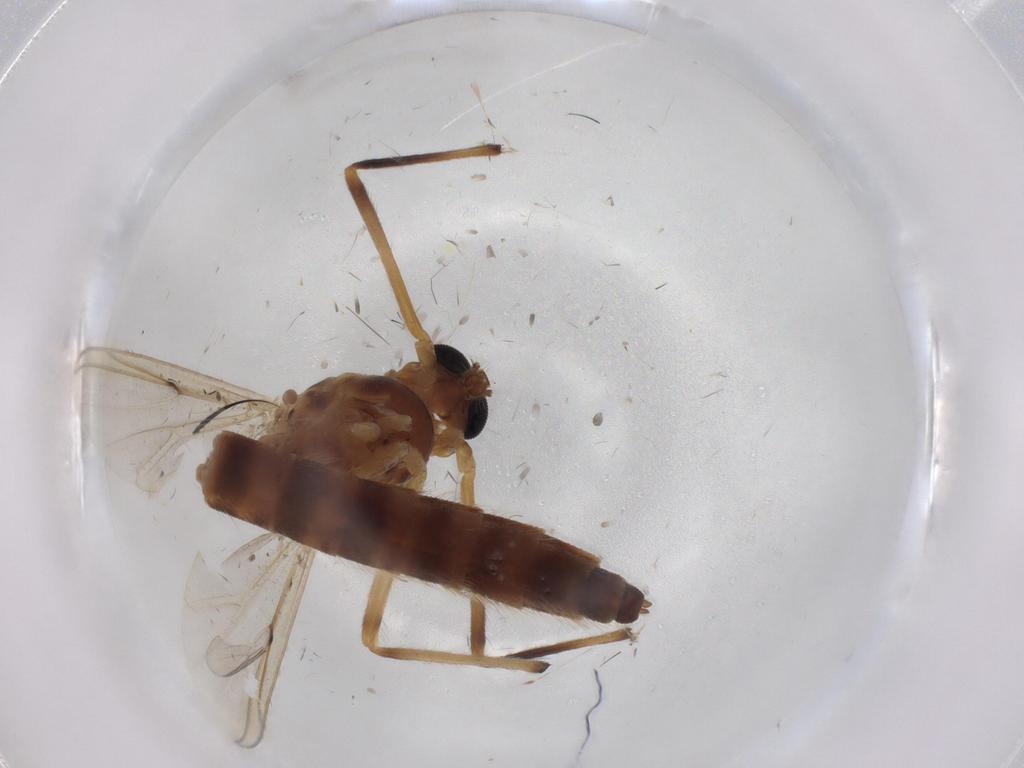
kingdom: Animalia
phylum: Arthropoda
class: Insecta
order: Diptera
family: Chironomidae
